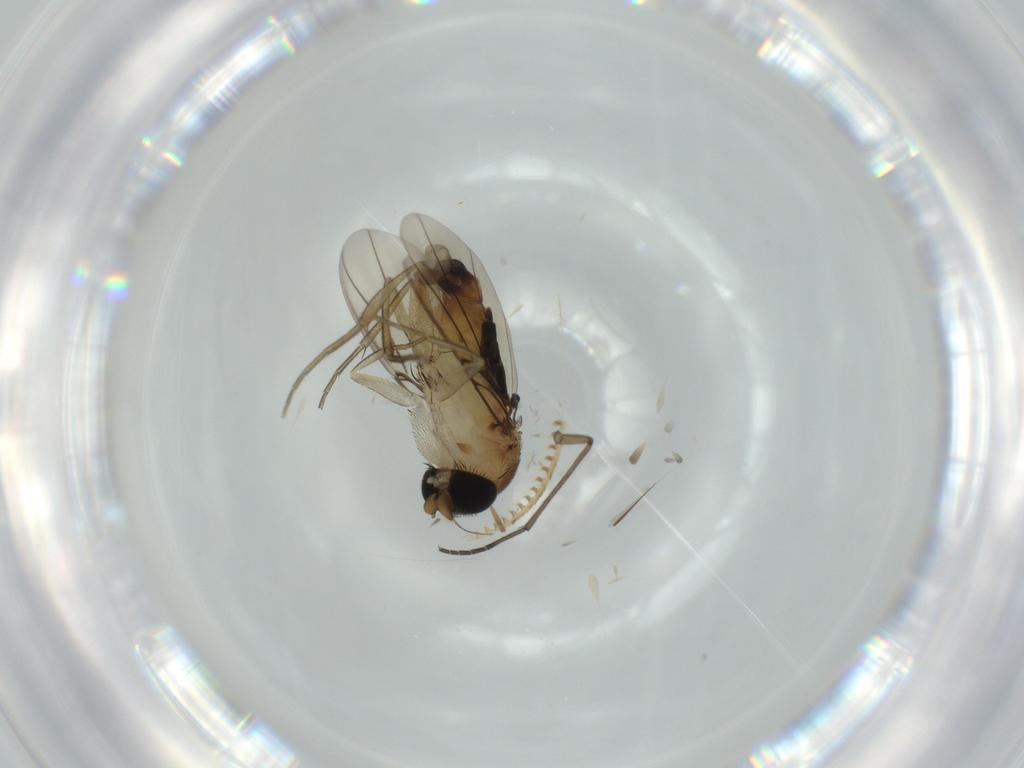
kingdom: Animalia
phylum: Arthropoda
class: Insecta
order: Diptera
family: Phoridae
